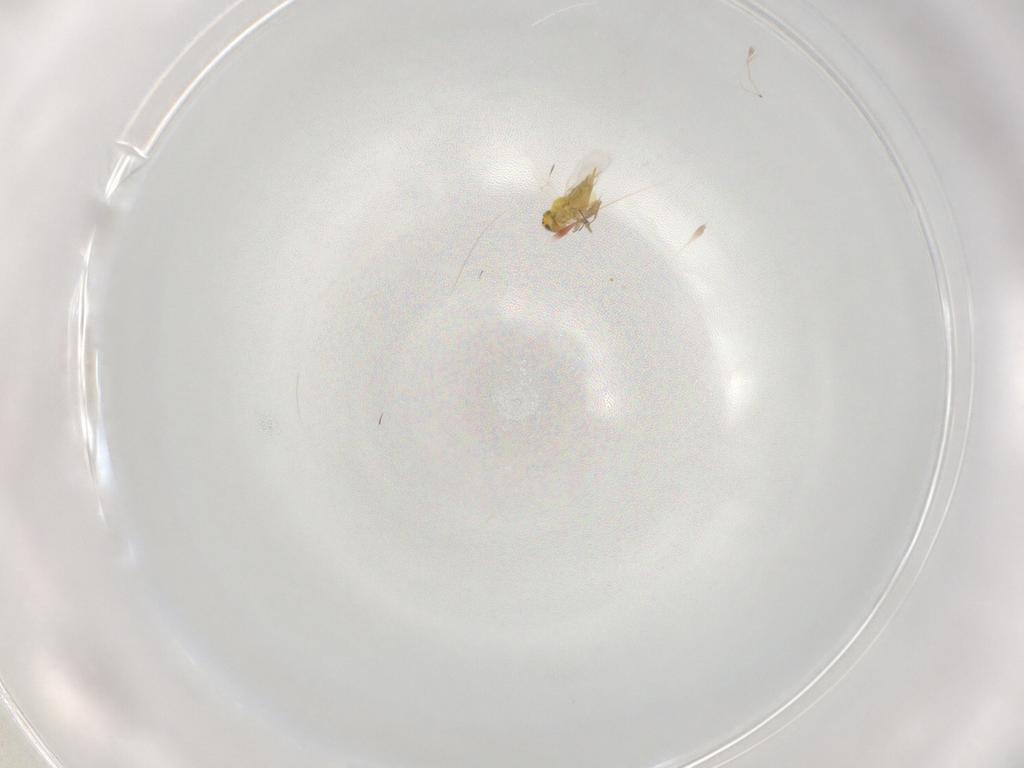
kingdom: Animalia
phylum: Arthropoda
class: Insecta
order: Hymenoptera
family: Aphelinidae
